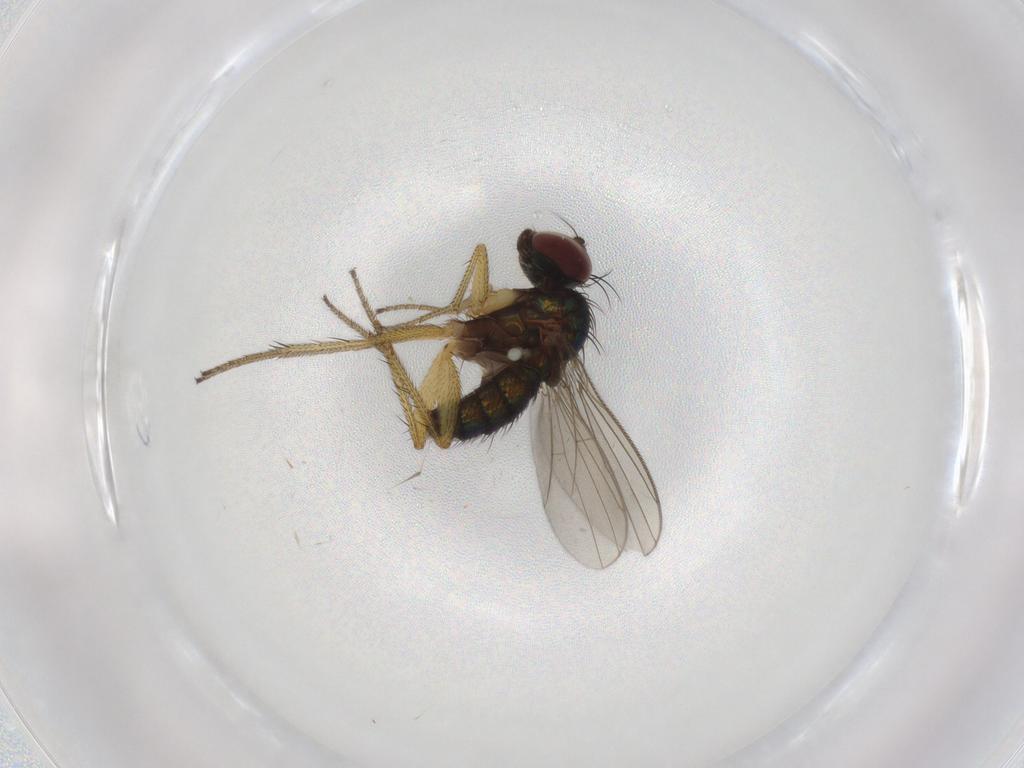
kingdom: Animalia
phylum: Arthropoda
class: Insecta
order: Diptera
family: Dolichopodidae
